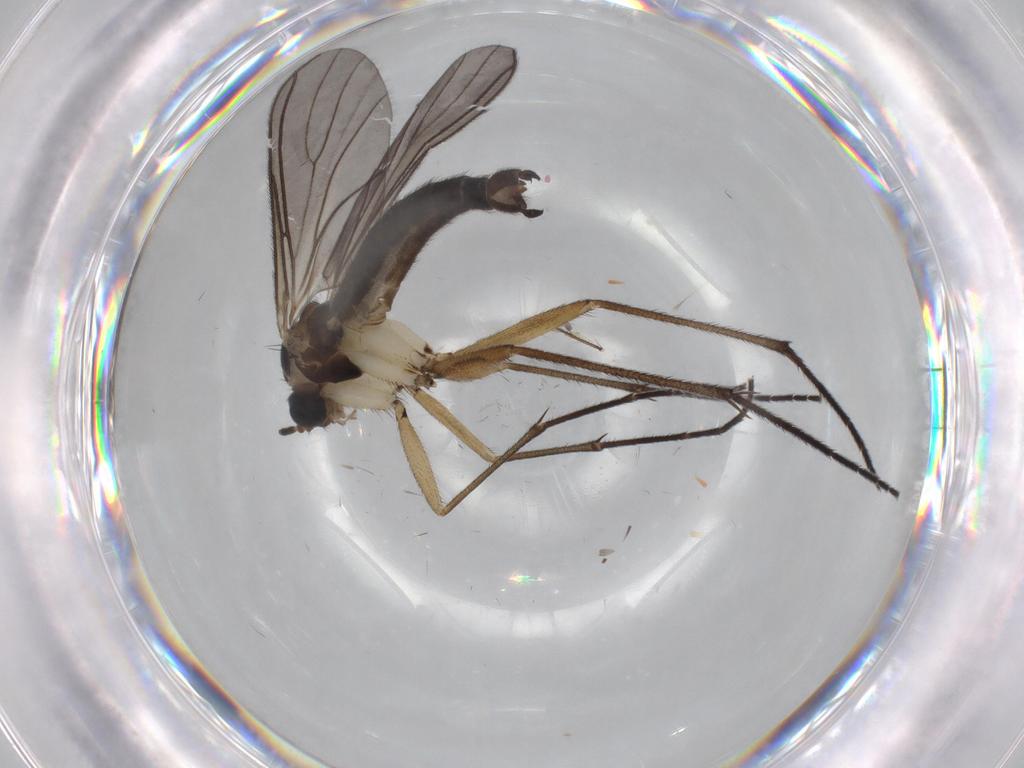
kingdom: Animalia
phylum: Arthropoda
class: Insecta
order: Diptera
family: Sciaridae
